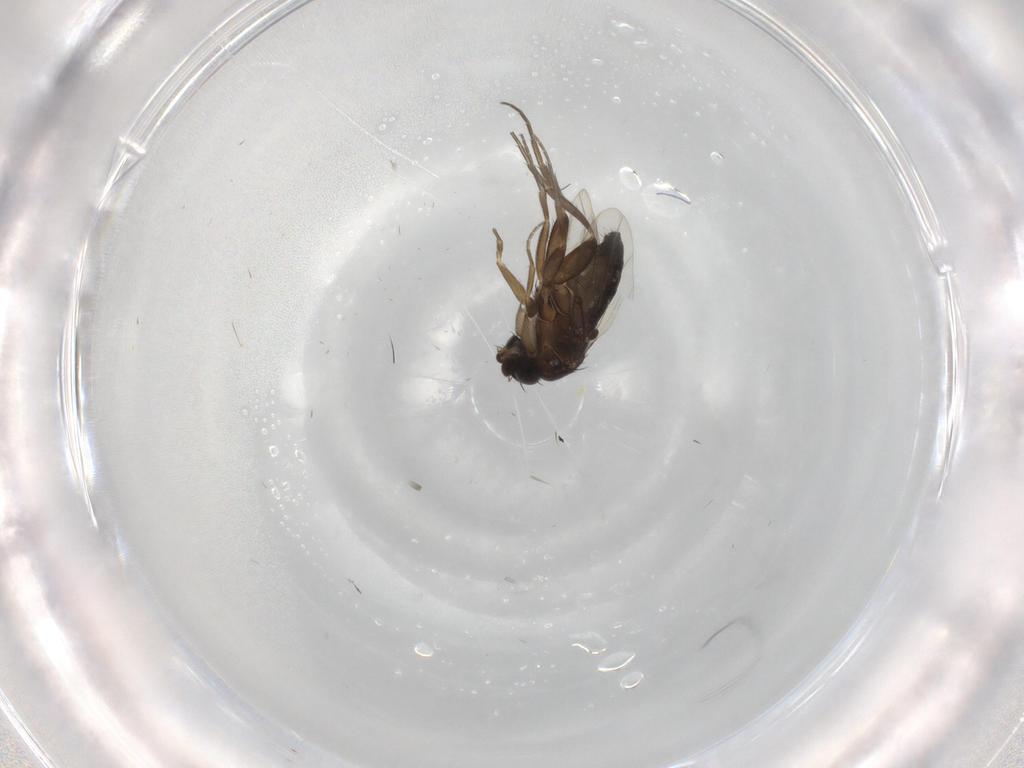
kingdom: Animalia
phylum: Arthropoda
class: Insecta
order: Diptera
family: Phoridae
